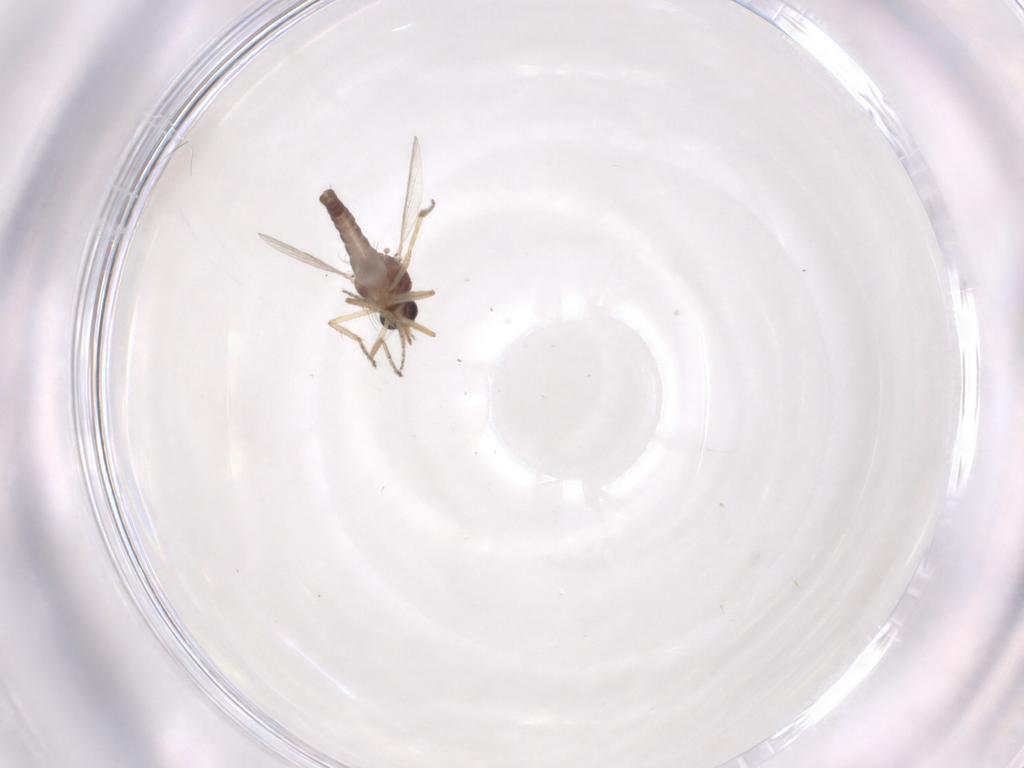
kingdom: Animalia
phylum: Arthropoda
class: Insecta
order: Diptera
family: Ceratopogonidae
